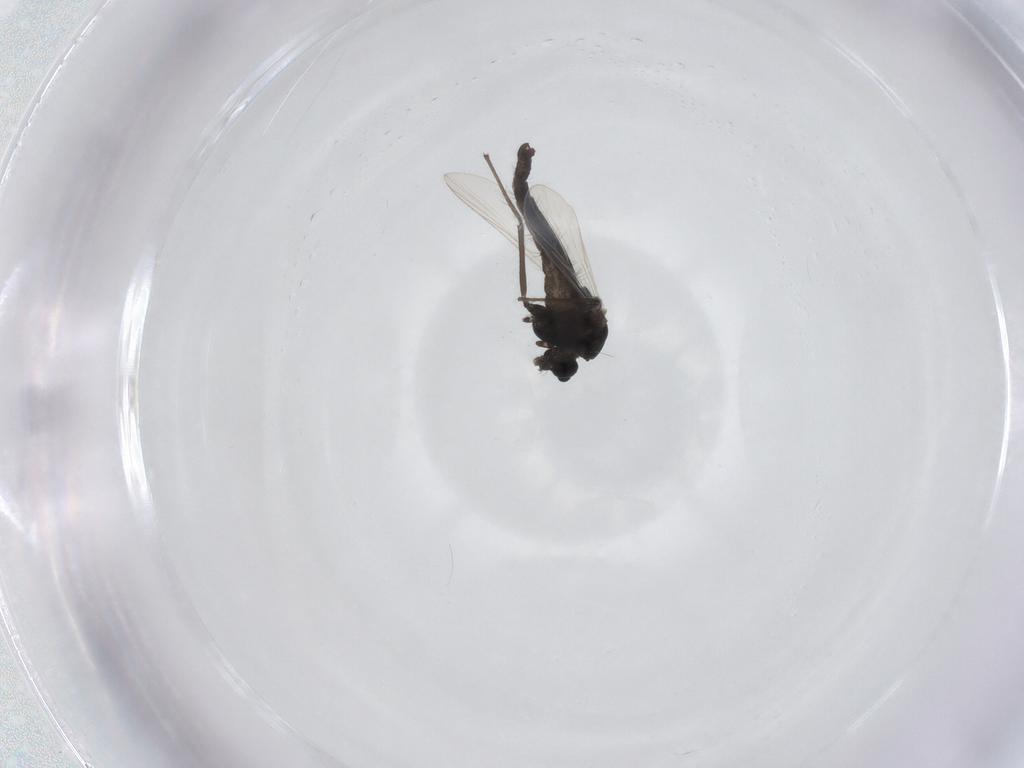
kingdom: Animalia
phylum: Arthropoda
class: Insecta
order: Diptera
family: Chironomidae
